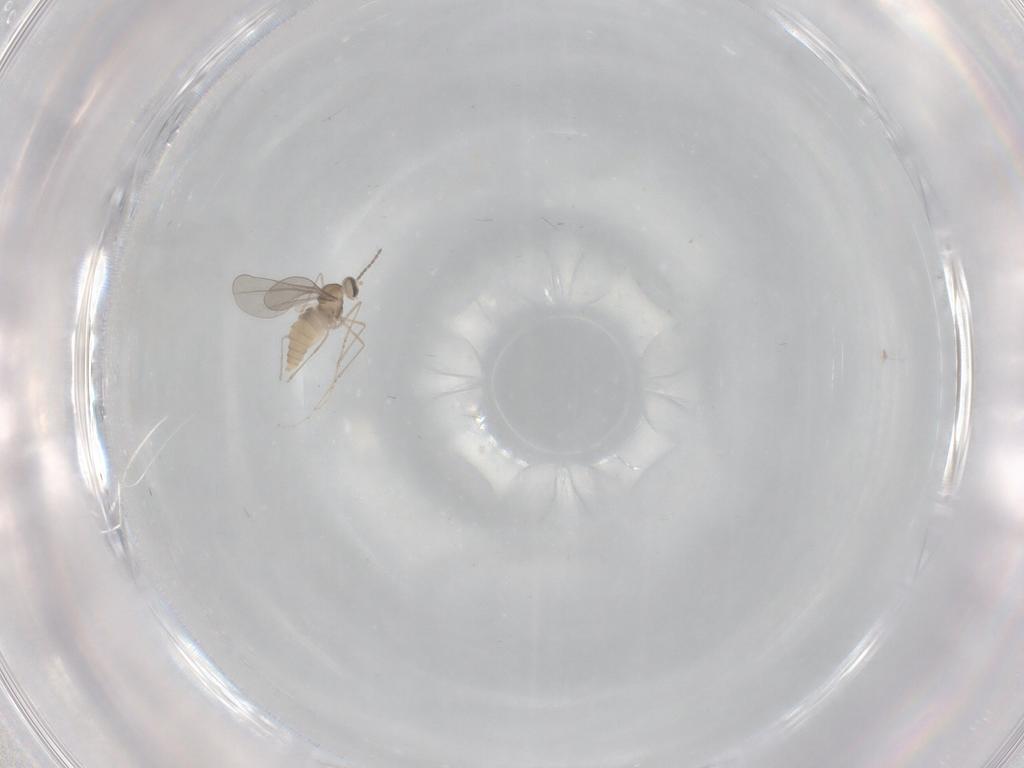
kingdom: Animalia
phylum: Arthropoda
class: Insecta
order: Diptera
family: Cecidomyiidae
